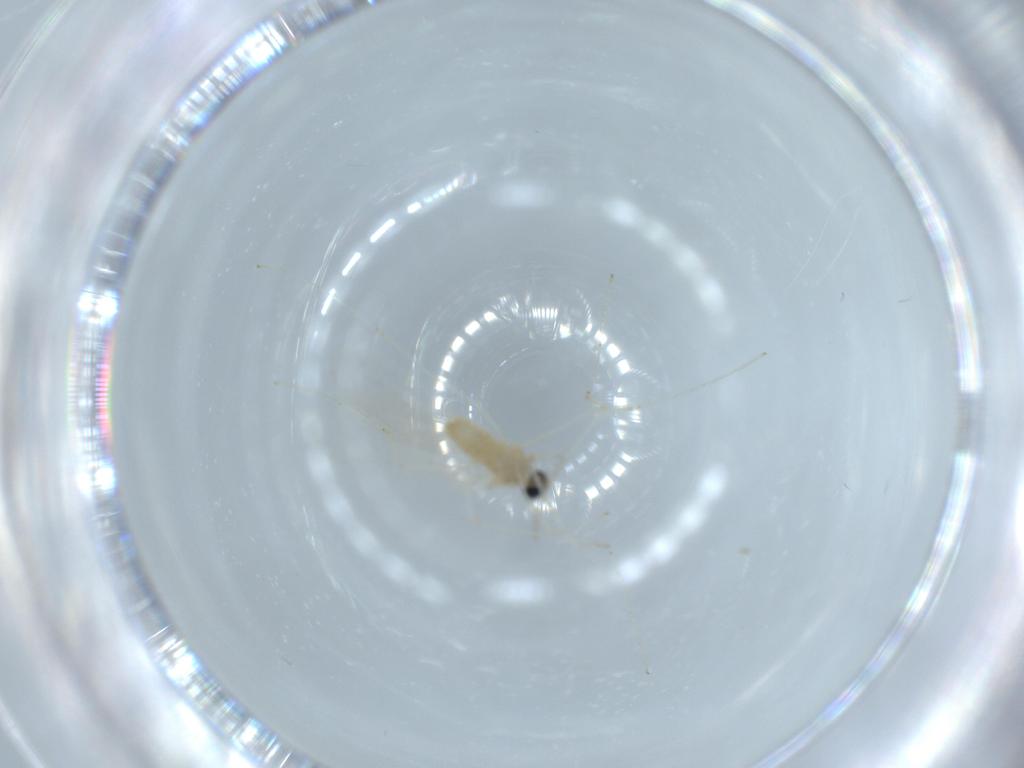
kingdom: Animalia
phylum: Arthropoda
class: Insecta
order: Diptera
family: Cecidomyiidae
